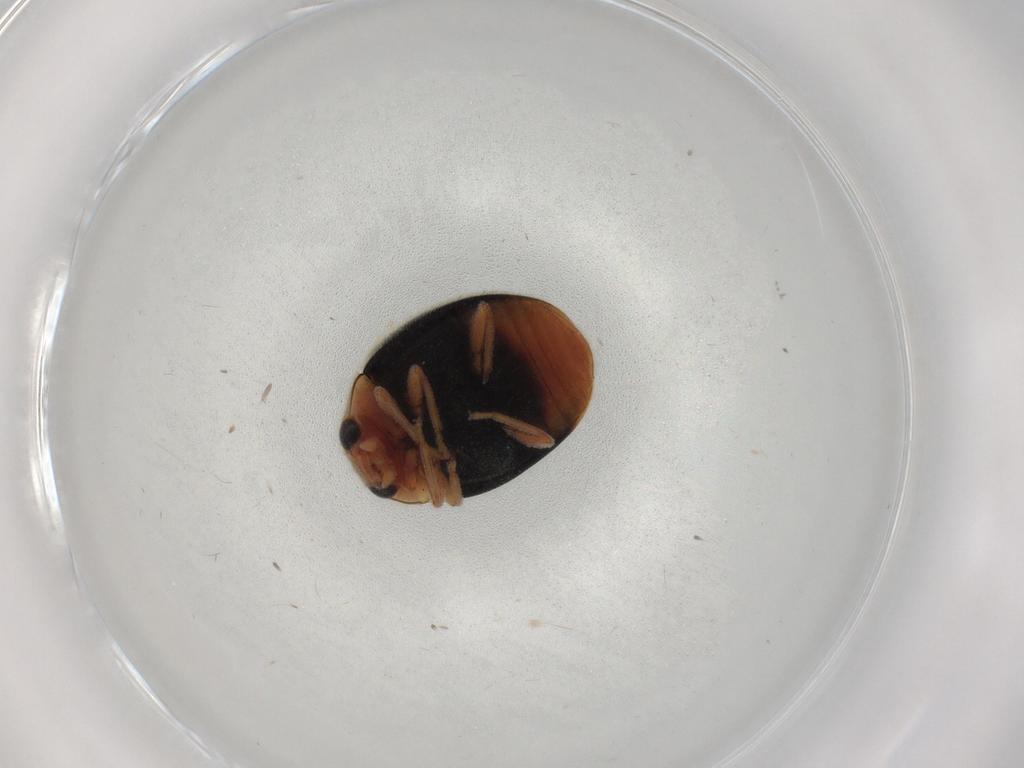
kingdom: Animalia
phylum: Arthropoda
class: Insecta
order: Coleoptera
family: Coccinellidae
